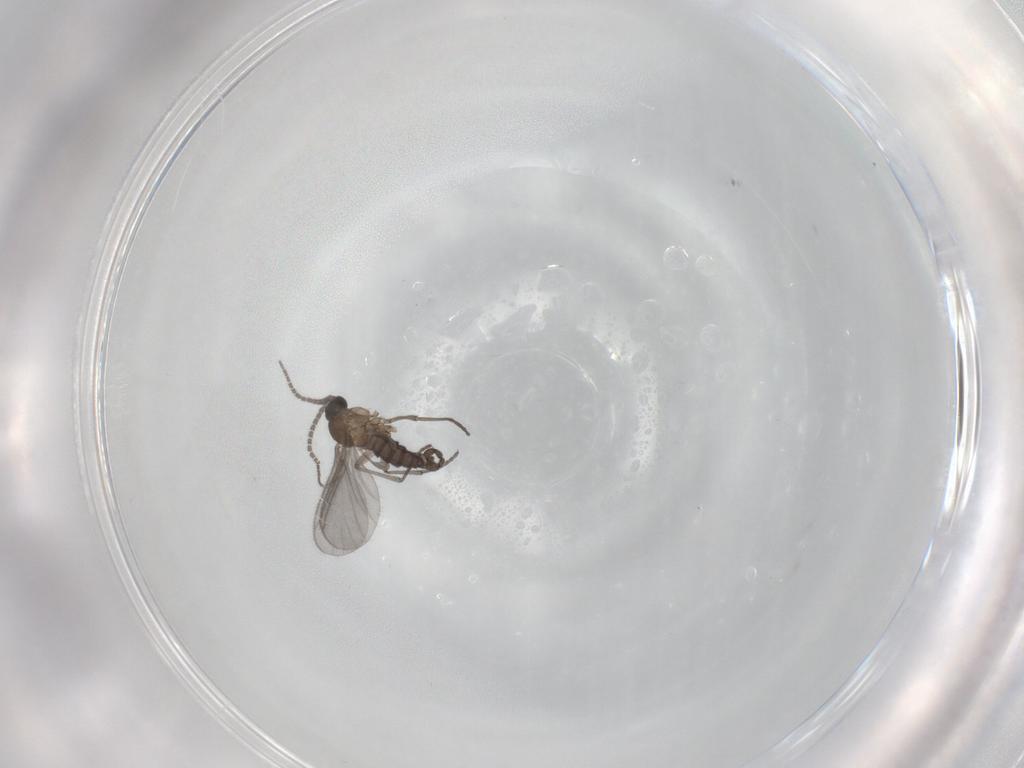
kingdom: Animalia
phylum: Arthropoda
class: Insecta
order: Diptera
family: Sciaridae
